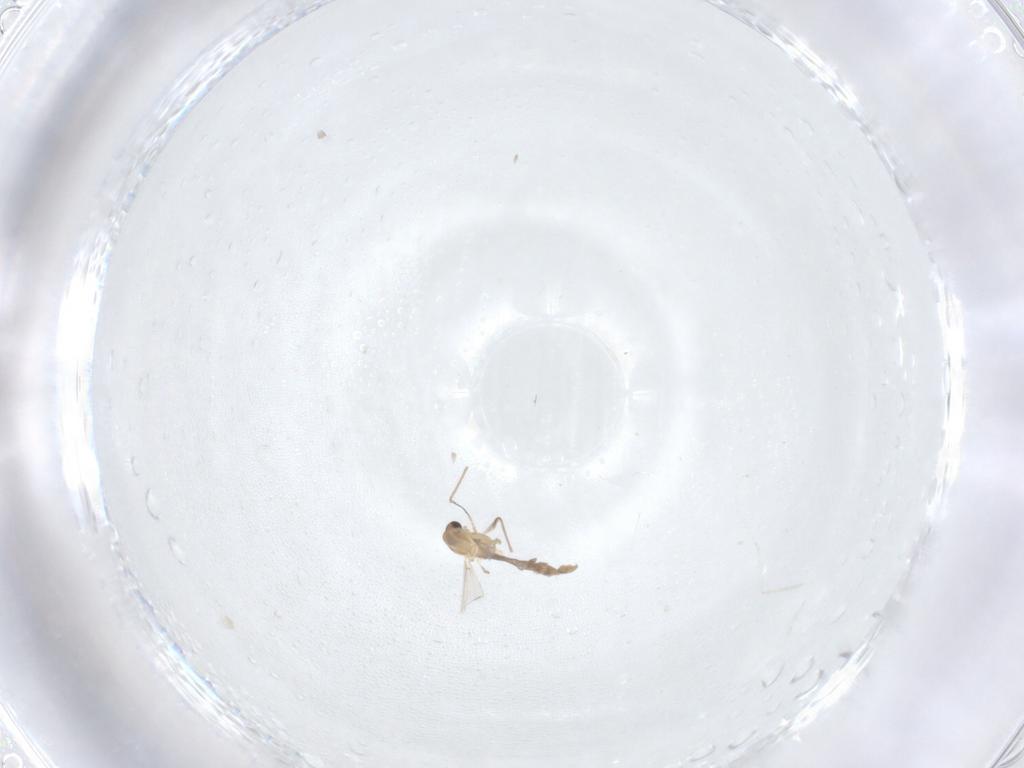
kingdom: Animalia
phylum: Arthropoda
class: Insecta
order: Diptera
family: Chironomidae
